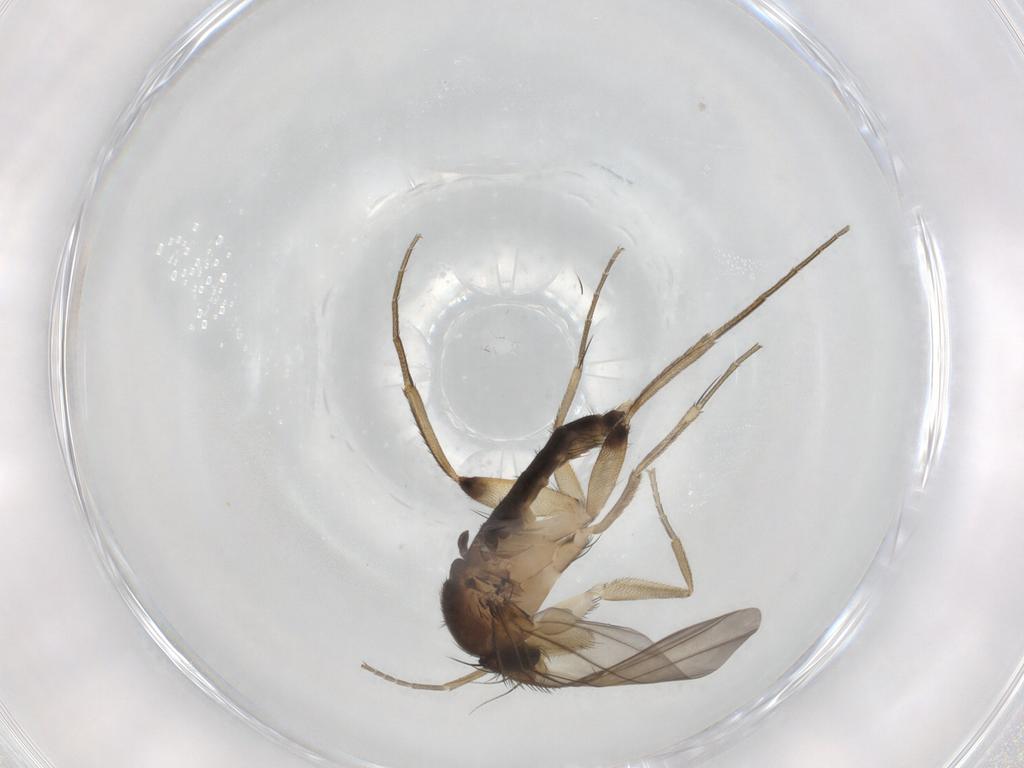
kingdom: Animalia
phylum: Arthropoda
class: Insecta
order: Diptera
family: Phoridae
